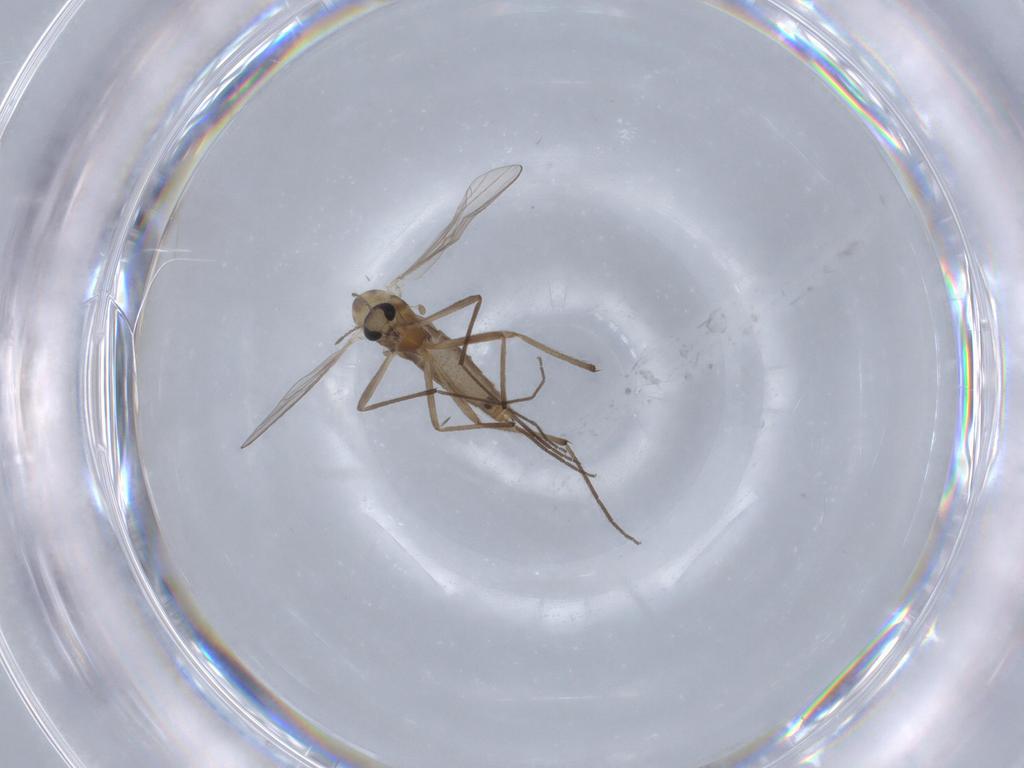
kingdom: Animalia
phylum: Arthropoda
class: Insecta
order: Diptera
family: Chironomidae
